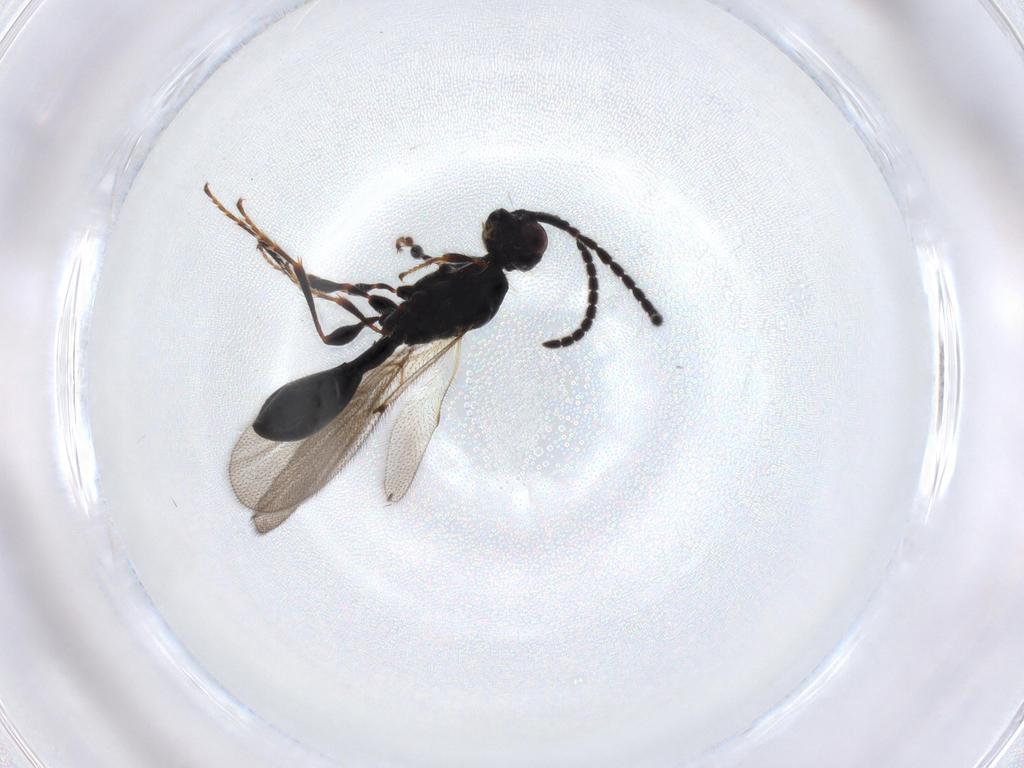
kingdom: Animalia
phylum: Arthropoda
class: Insecta
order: Hymenoptera
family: Diapriidae
